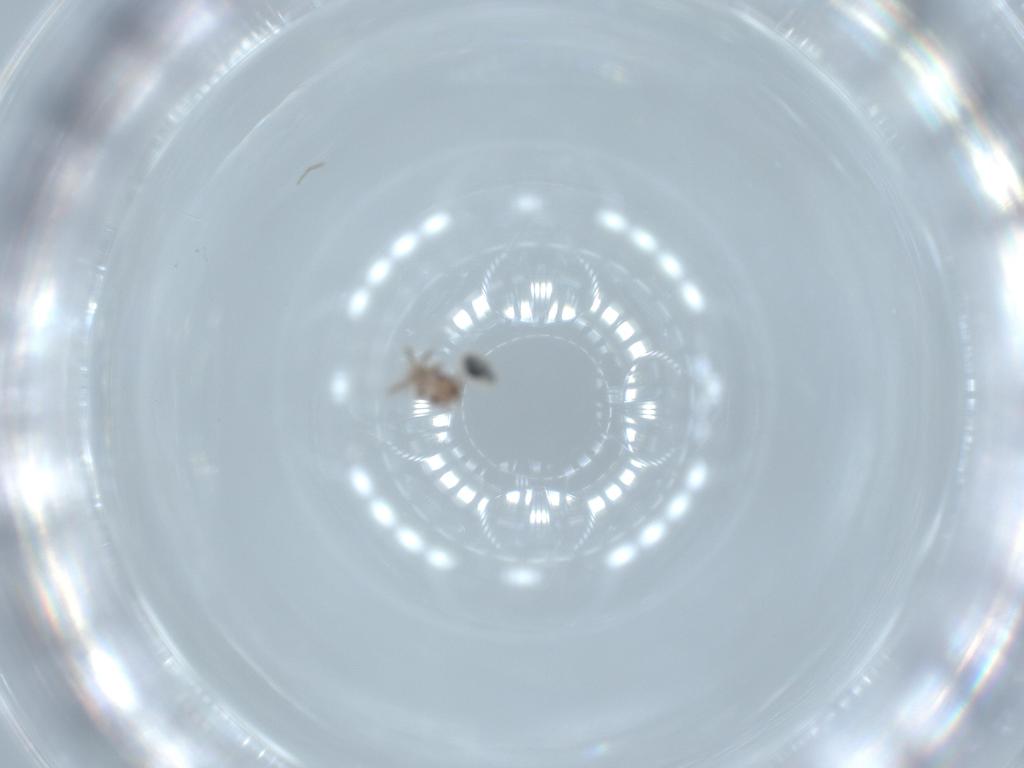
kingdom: Animalia
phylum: Arthropoda
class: Insecta
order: Psocodea
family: Lepidopsocidae
